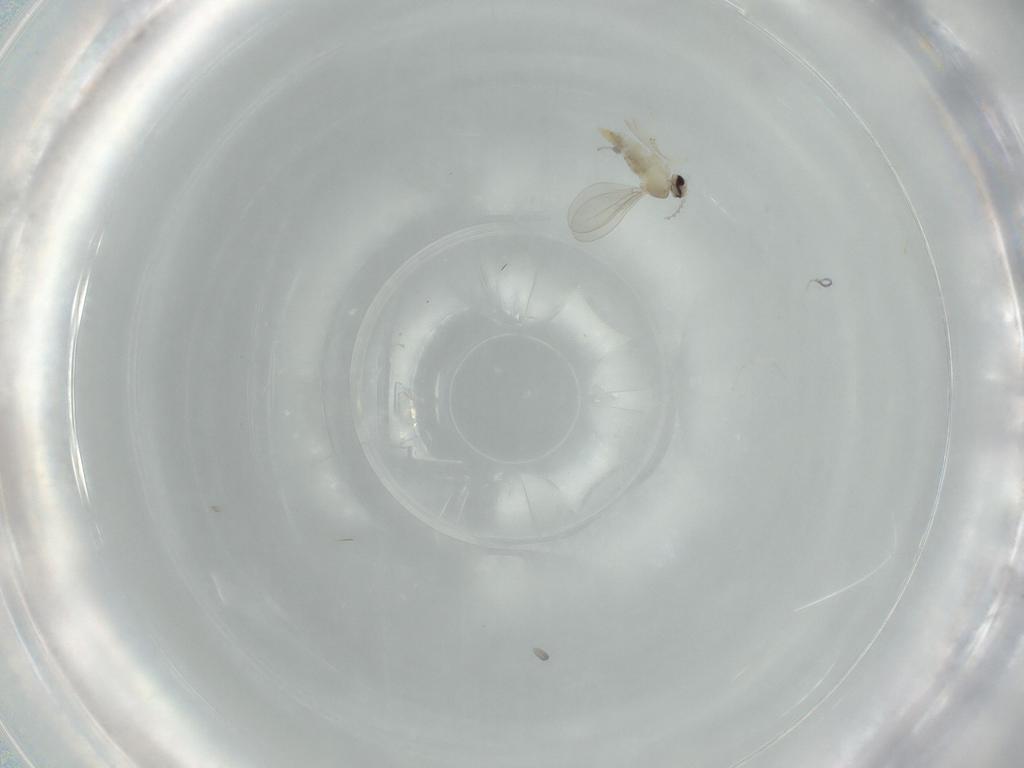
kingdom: Animalia
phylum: Arthropoda
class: Insecta
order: Diptera
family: Cecidomyiidae
